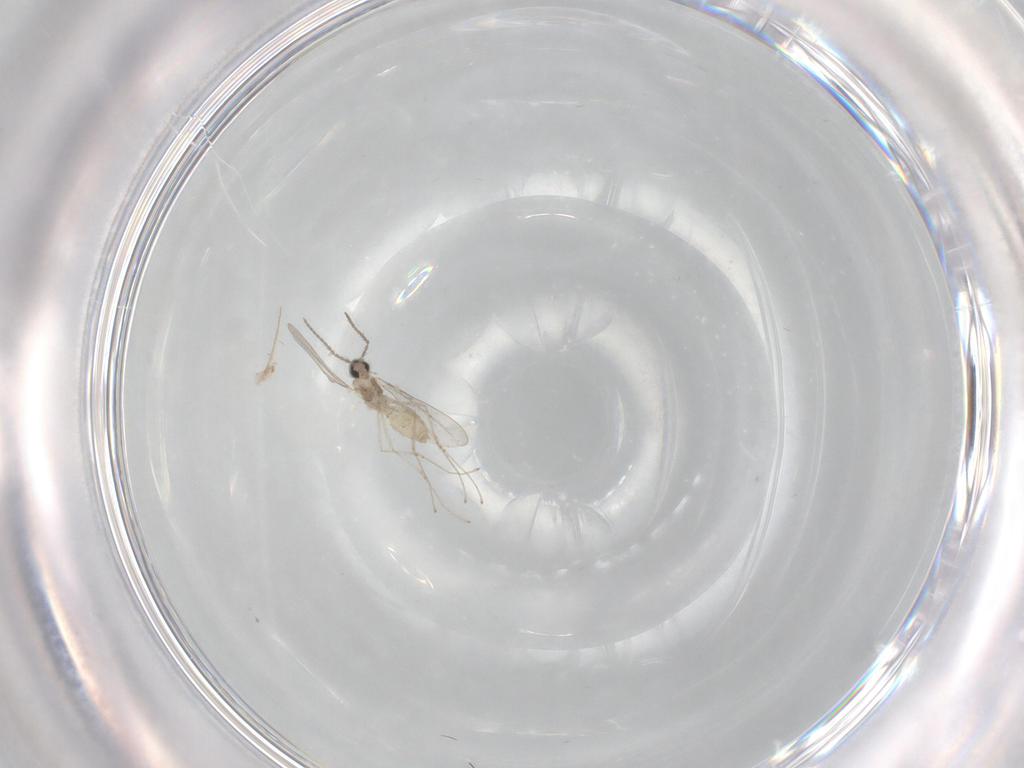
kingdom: Animalia
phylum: Arthropoda
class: Insecta
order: Diptera
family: Cecidomyiidae
